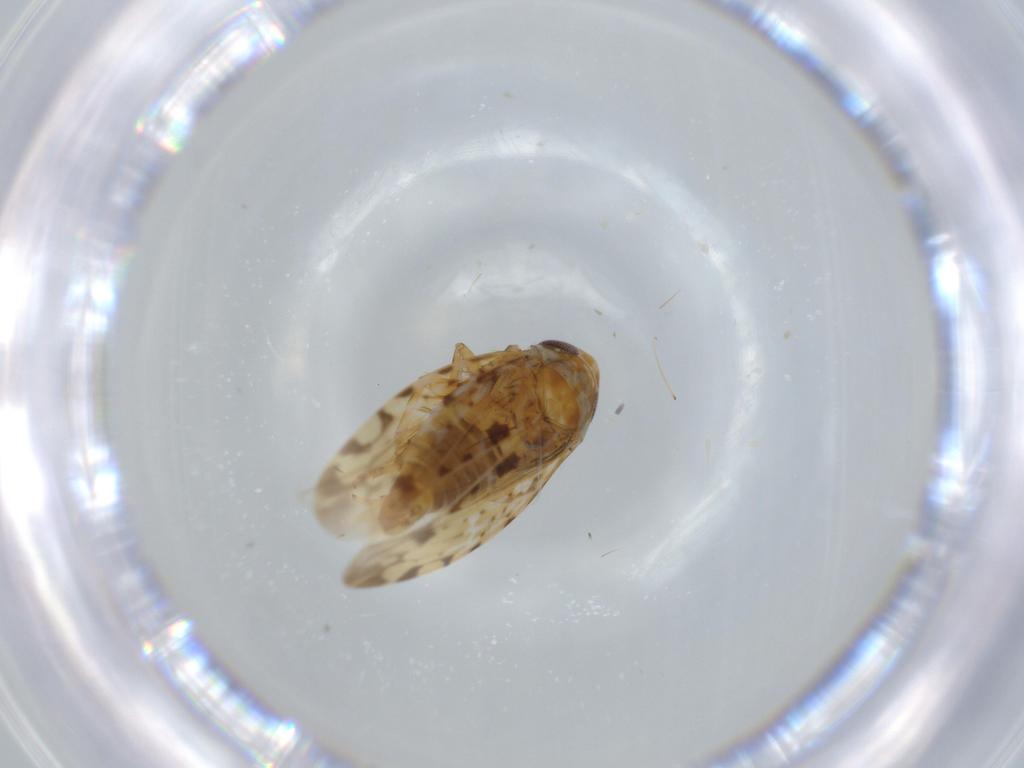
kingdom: Animalia
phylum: Arthropoda
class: Insecta
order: Hemiptera
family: Cicadellidae
